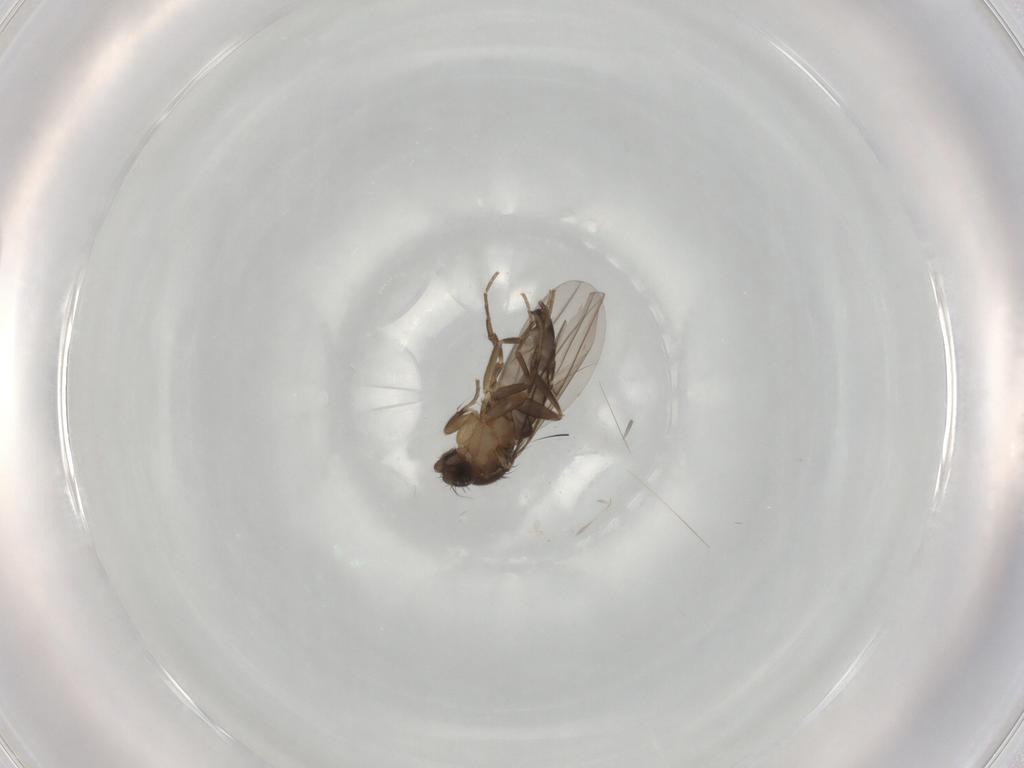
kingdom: Animalia
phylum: Arthropoda
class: Insecta
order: Diptera
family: Phoridae
